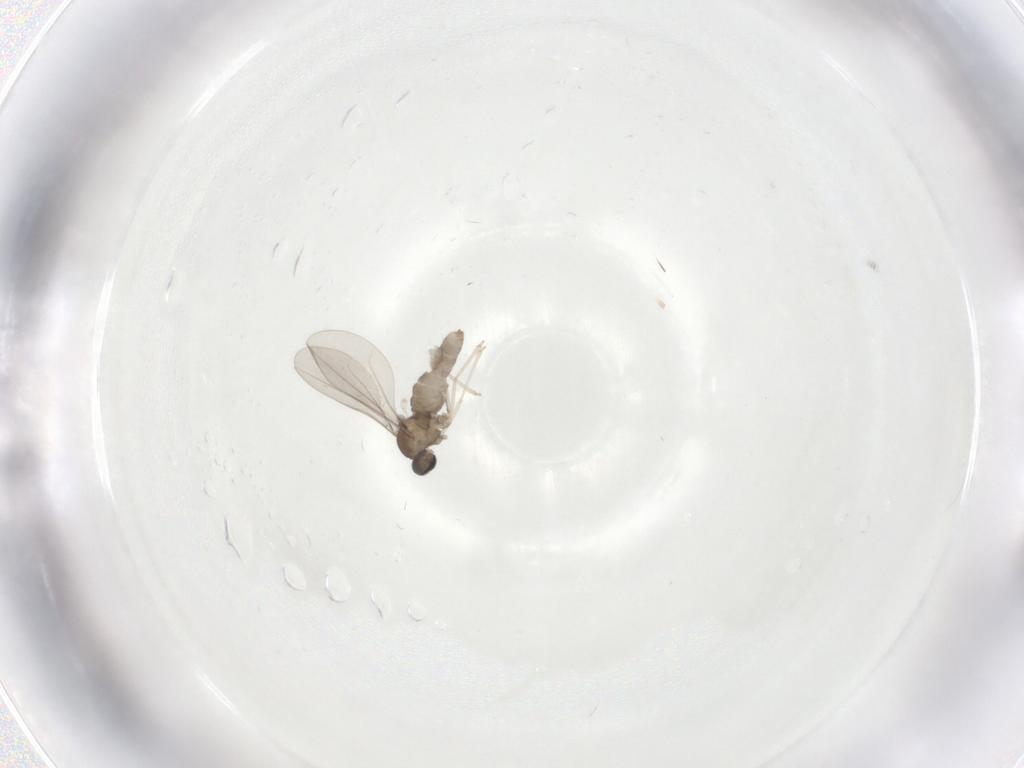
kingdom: Animalia
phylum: Arthropoda
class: Insecta
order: Diptera
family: Cecidomyiidae
